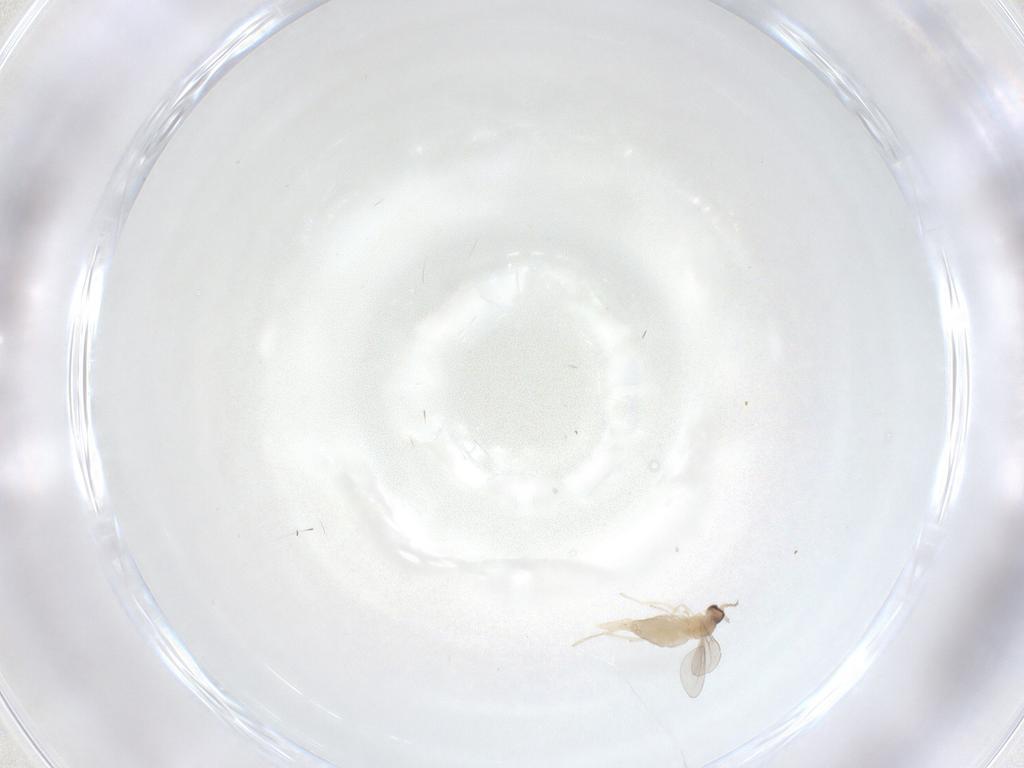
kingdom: Animalia
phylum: Arthropoda
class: Insecta
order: Diptera
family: Cecidomyiidae
